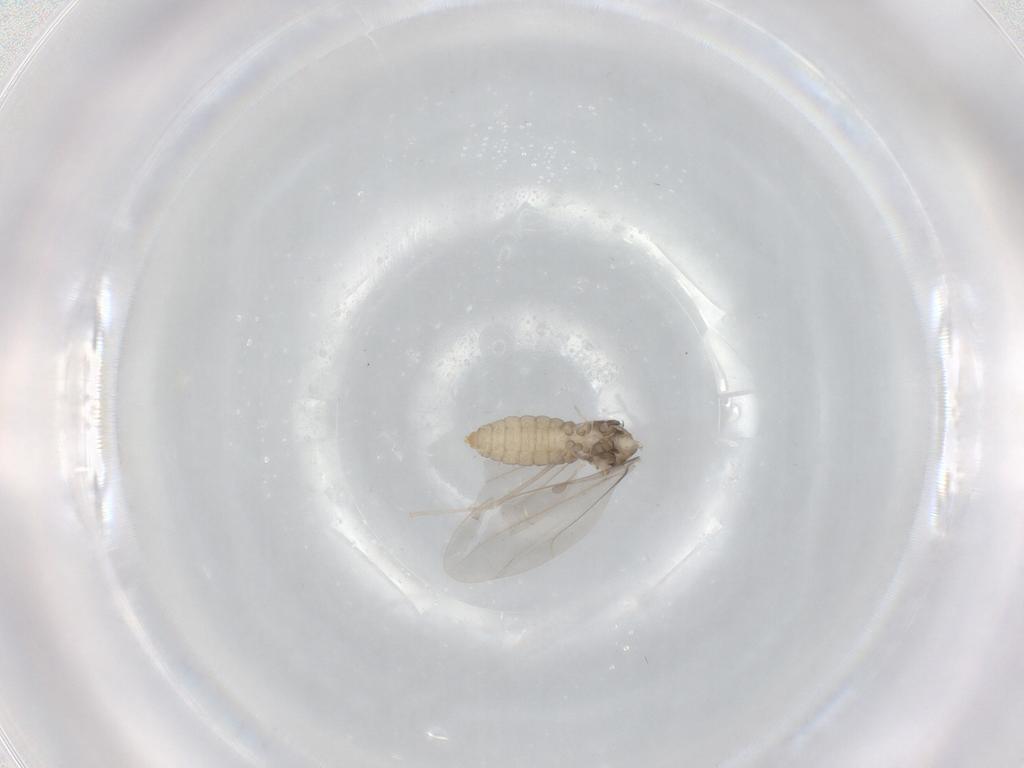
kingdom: Animalia
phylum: Arthropoda
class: Insecta
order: Diptera
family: Cecidomyiidae
